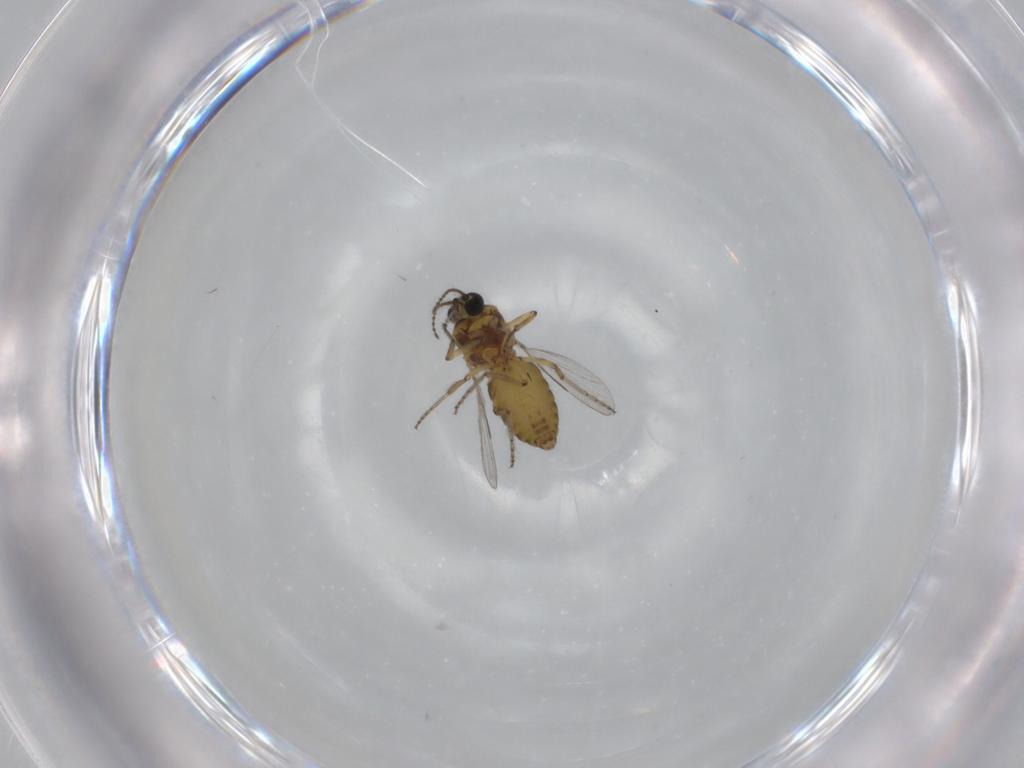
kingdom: Animalia
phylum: Arthropoda
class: Insecta
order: Diptera
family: Ceratopogonidae
